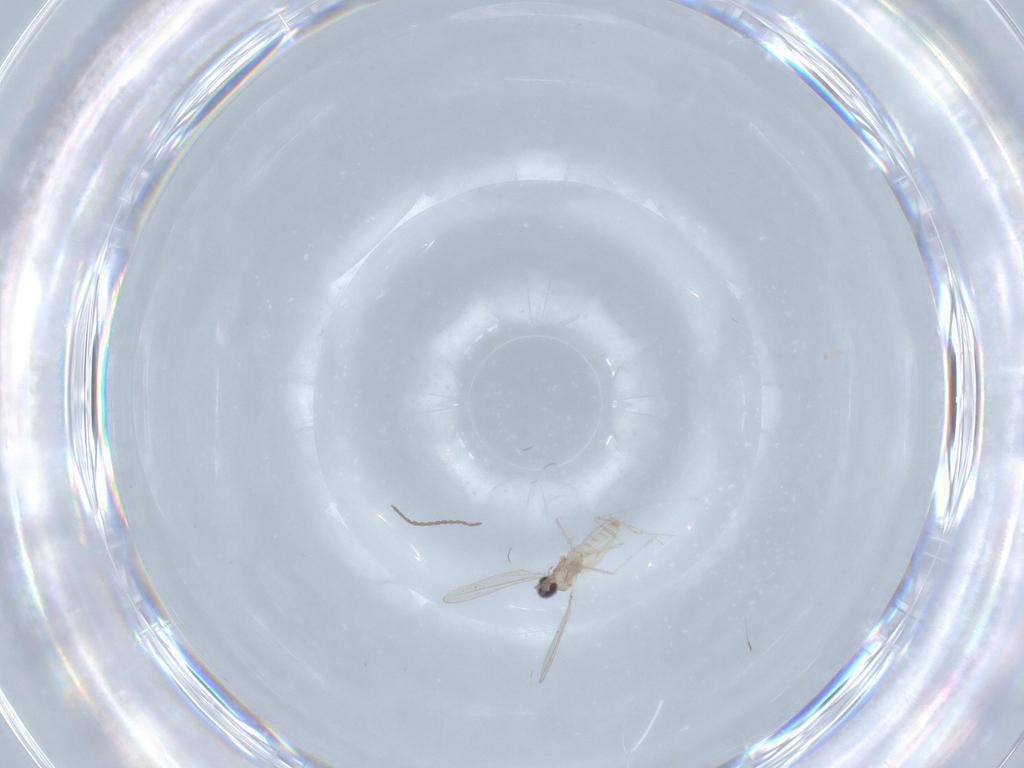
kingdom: Animalia
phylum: Arthropoda
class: Insecta
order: Diptera
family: Cecidomyiidae
